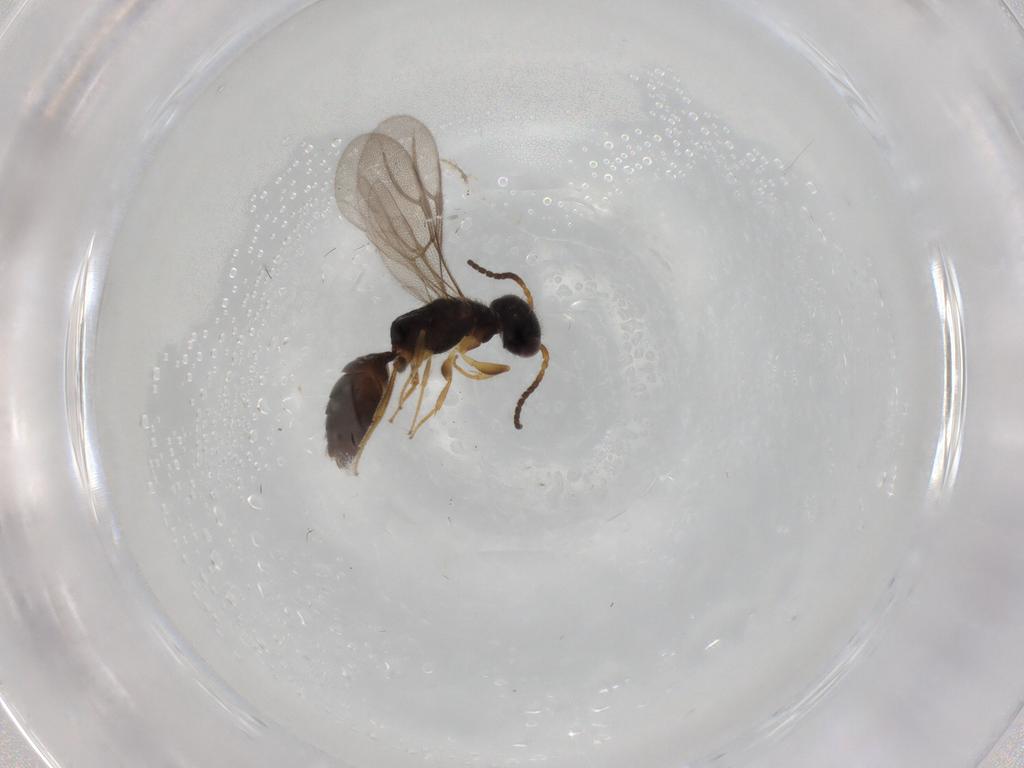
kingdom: Animalia
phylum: Arthropoda
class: Insecta
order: Hymenoptera
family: Bethylidae
